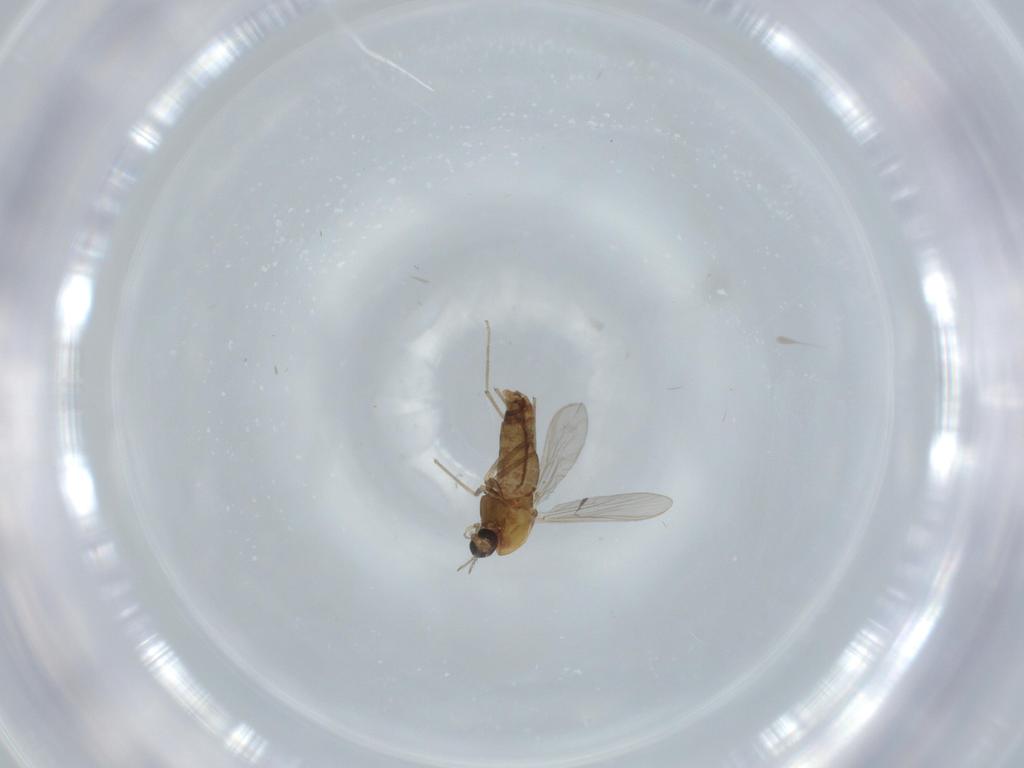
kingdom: Animalia
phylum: Arthropoda
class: Insecta
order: Diptera
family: Chironomidae
